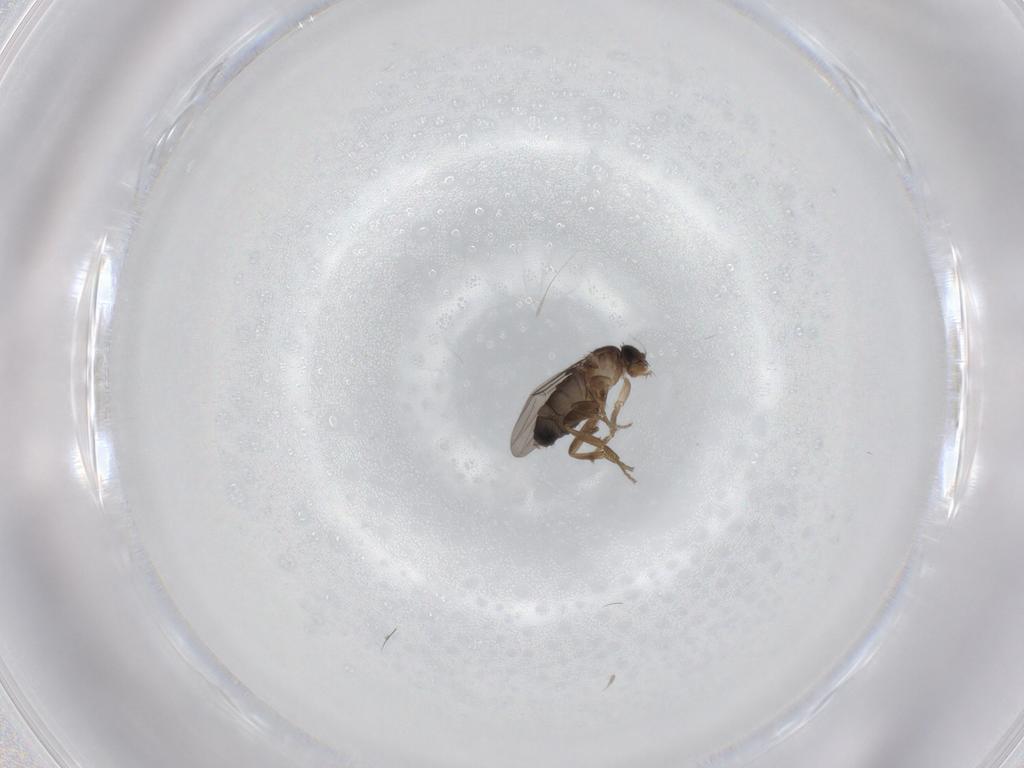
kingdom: Animalia
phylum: Arthropoda
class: Insecta
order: Diptera
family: Phoridae
